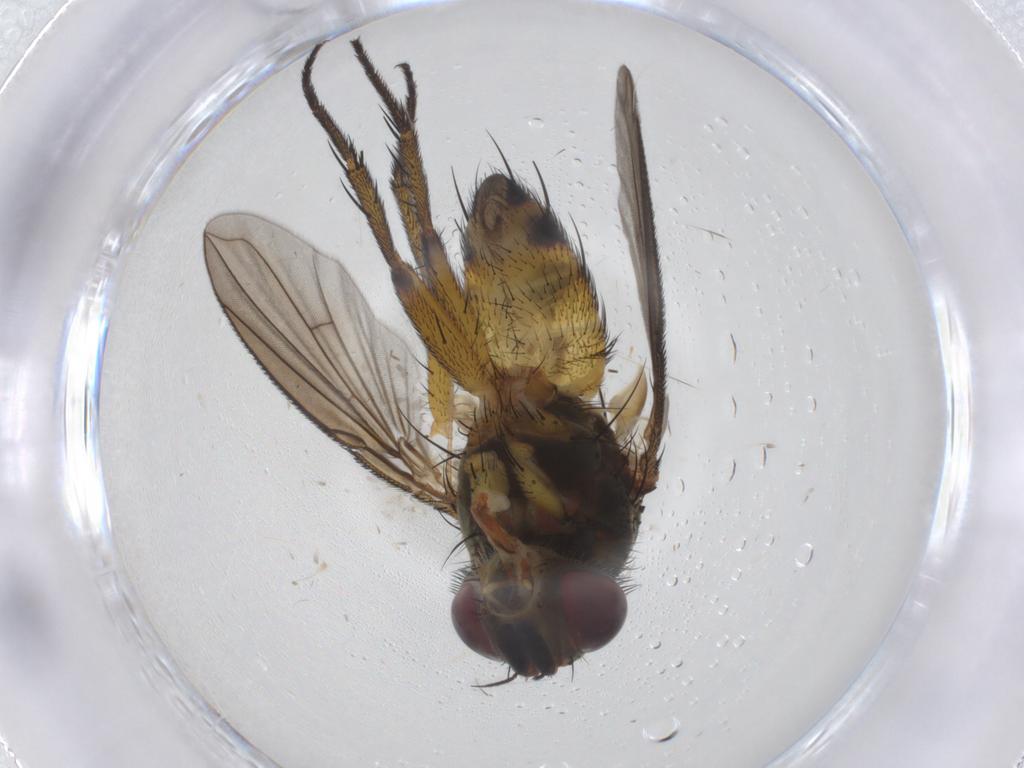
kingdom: Animalia
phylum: Arthropoda
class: Insecta
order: Diptera
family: Tachinidae
